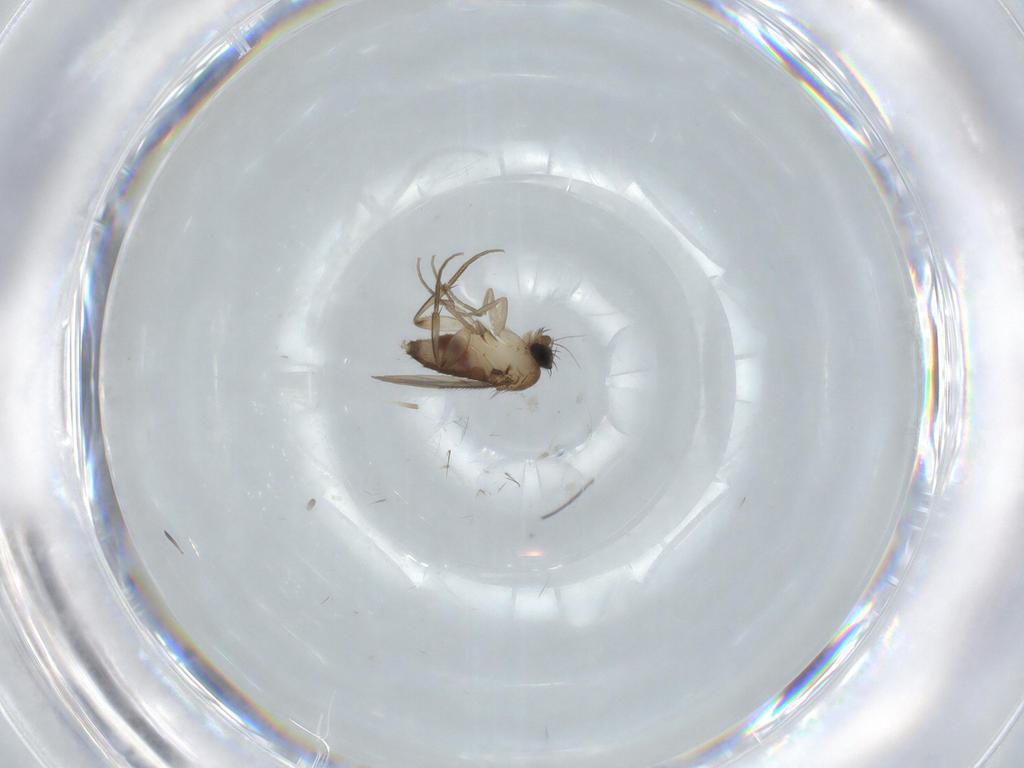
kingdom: Animalia
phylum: Arthropoda
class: Insecta
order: Diptera
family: Phoridae
